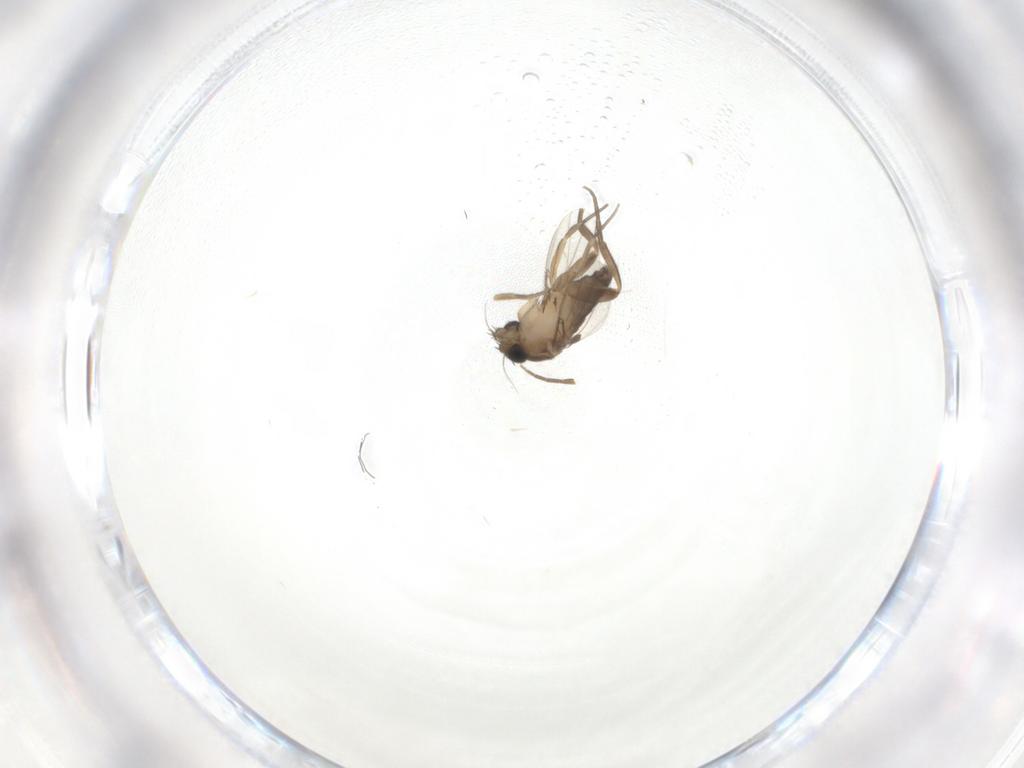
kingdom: Animalia
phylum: Arthropoda
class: Insecta
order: Diptera
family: Phoridae
